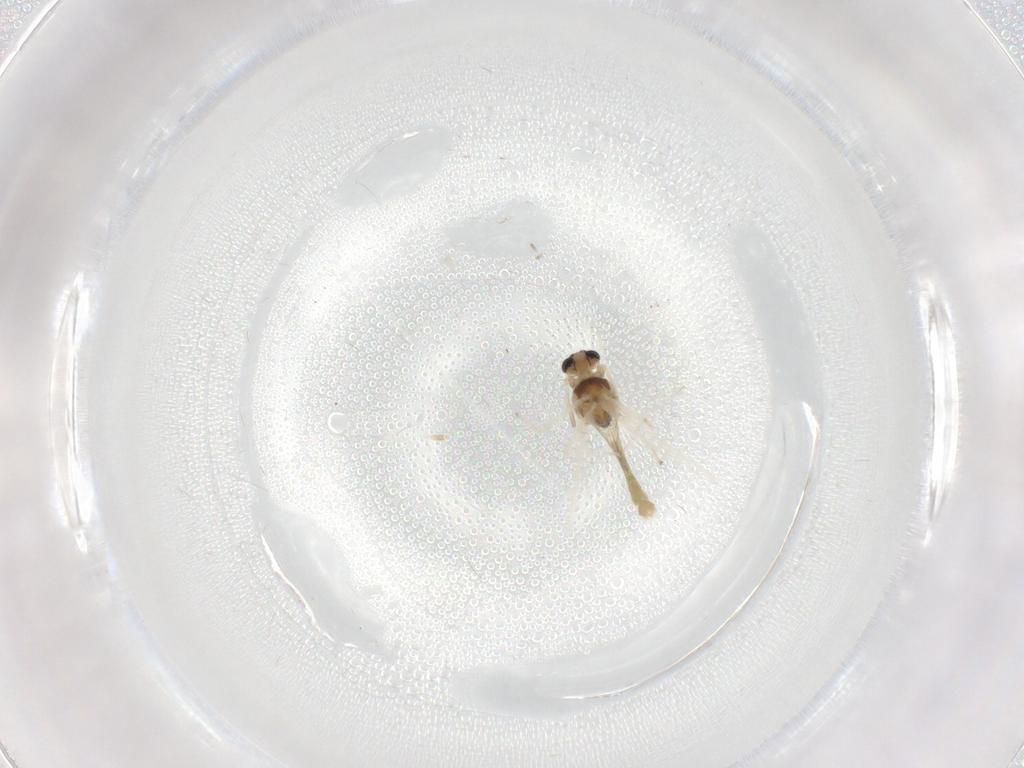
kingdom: Animalia
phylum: Arthropoda
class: Insecta
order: Diptera
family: Chironomidae
